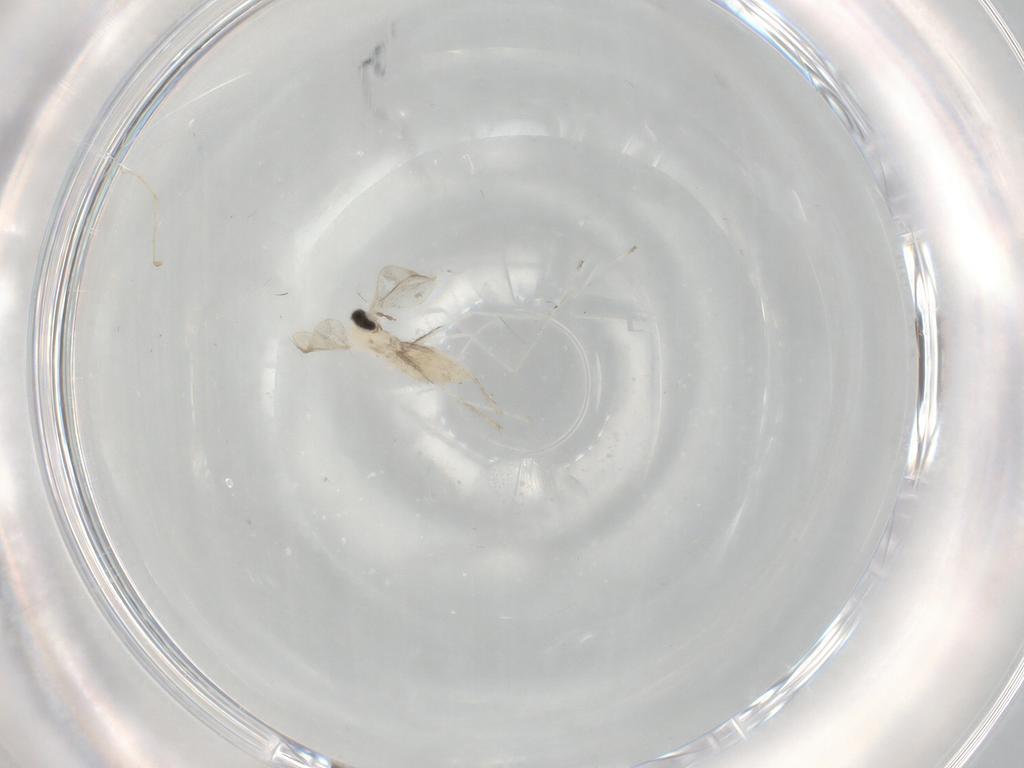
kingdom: Animalia
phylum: Arthropoda
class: Insecta
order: Diptera
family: Cecidomyiidae
